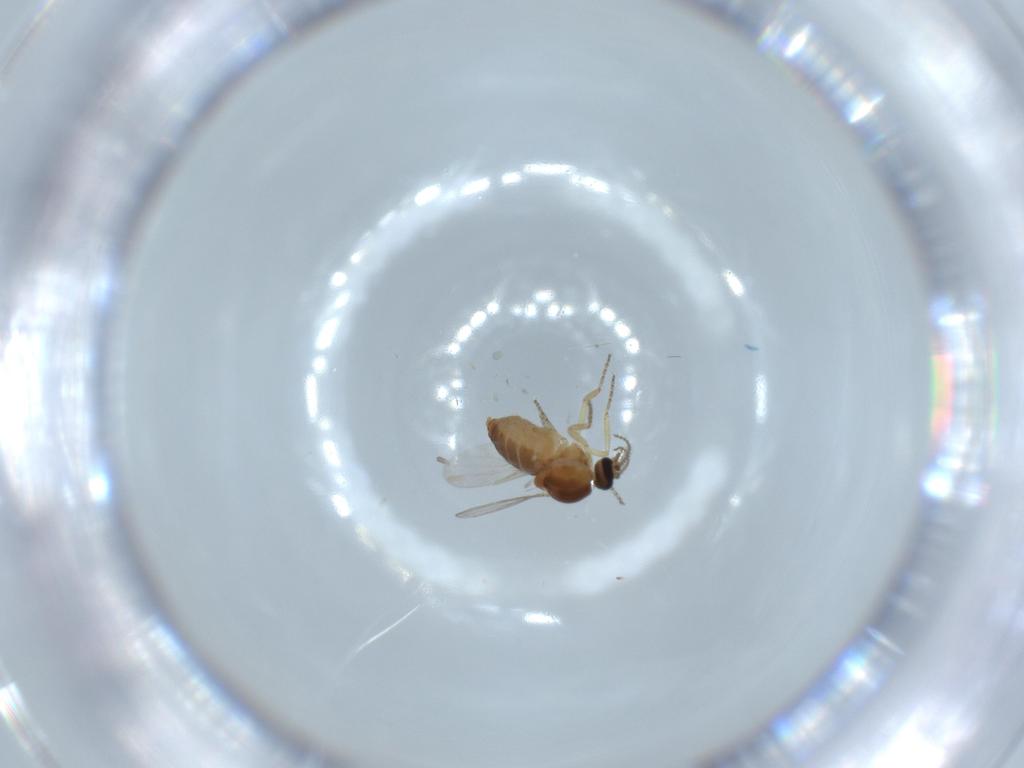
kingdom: Animalia
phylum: Arthropoda
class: Insecta
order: Diptera
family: Ceratopogonidae
